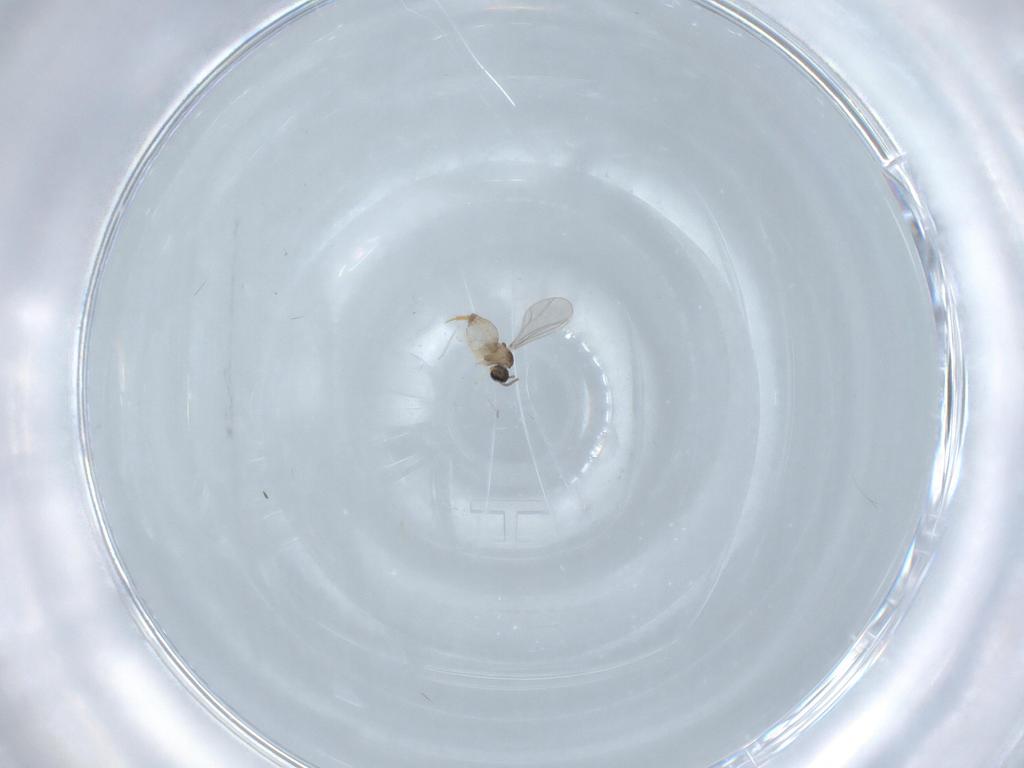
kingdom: Animalia
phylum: Arthropoda
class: Insecta
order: Diptera
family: Cecidomyiidae
